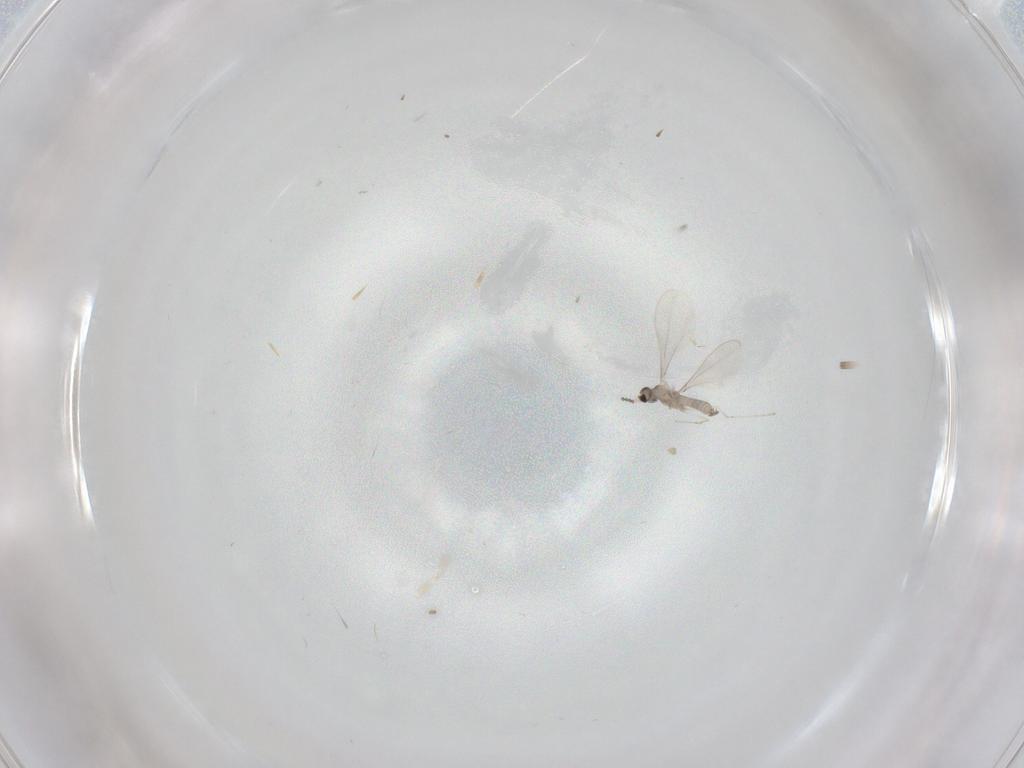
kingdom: Animalia
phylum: Arthropoda
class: Insecta
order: Diptera
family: Cecidomyiidae
